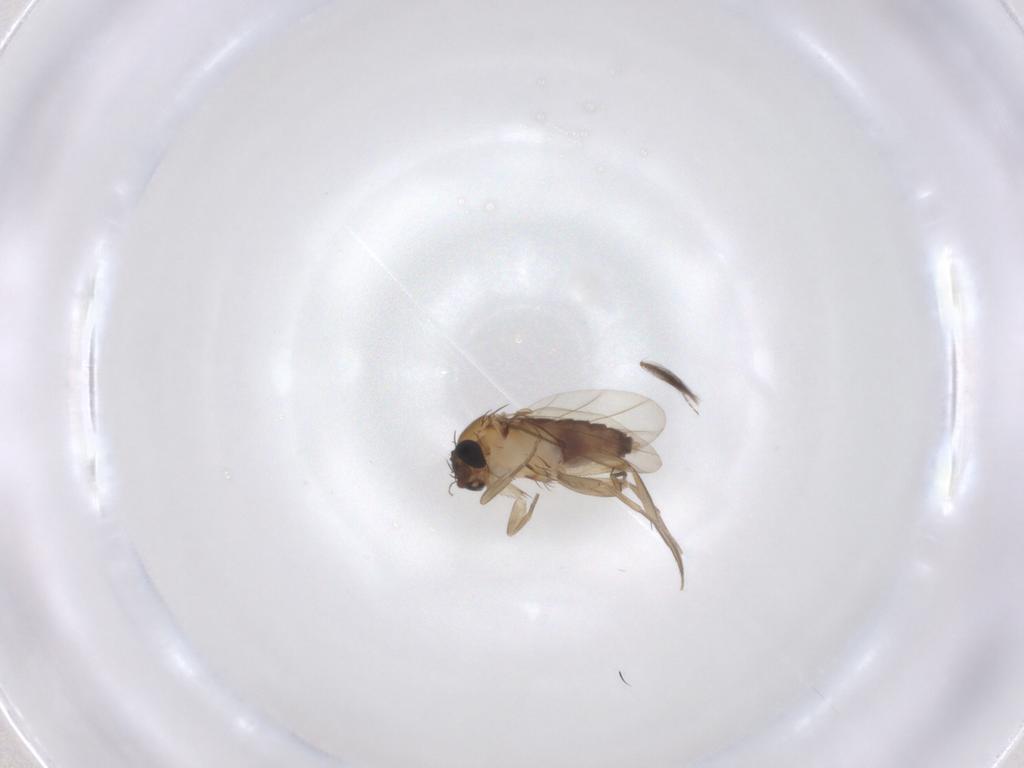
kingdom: Animalia
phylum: Arthropoda
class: Insecta
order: Diptera
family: Phoridae
